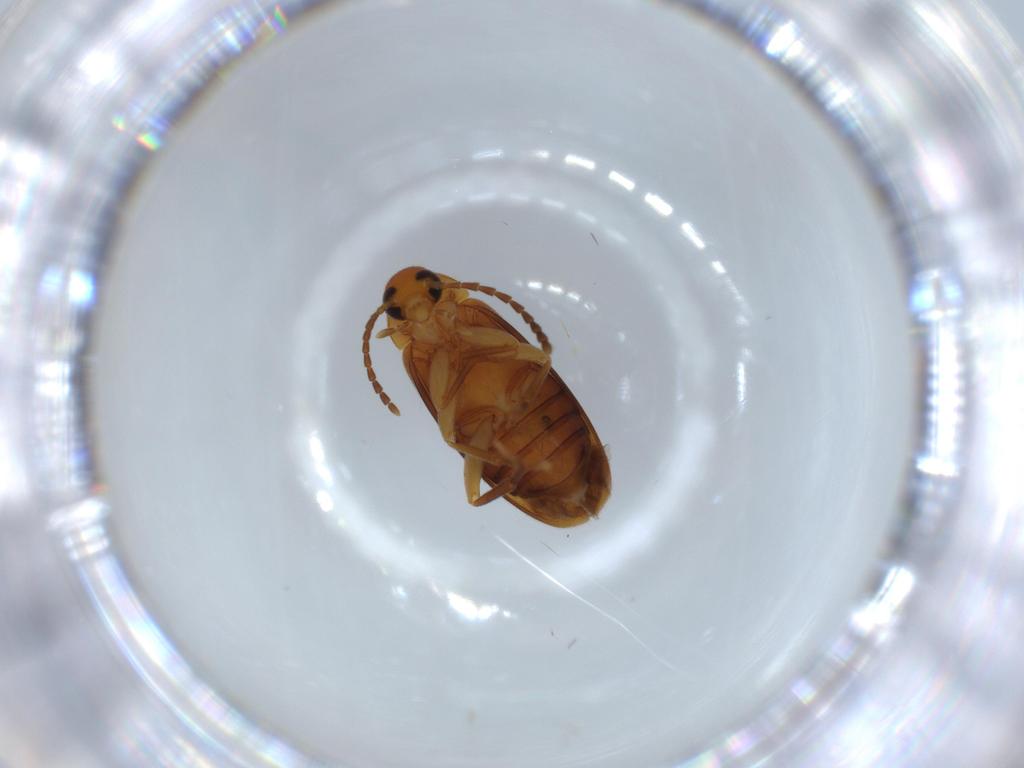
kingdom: Animalia
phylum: Arthropoda
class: Insecta
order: Coleoptera
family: Scraptiidae
